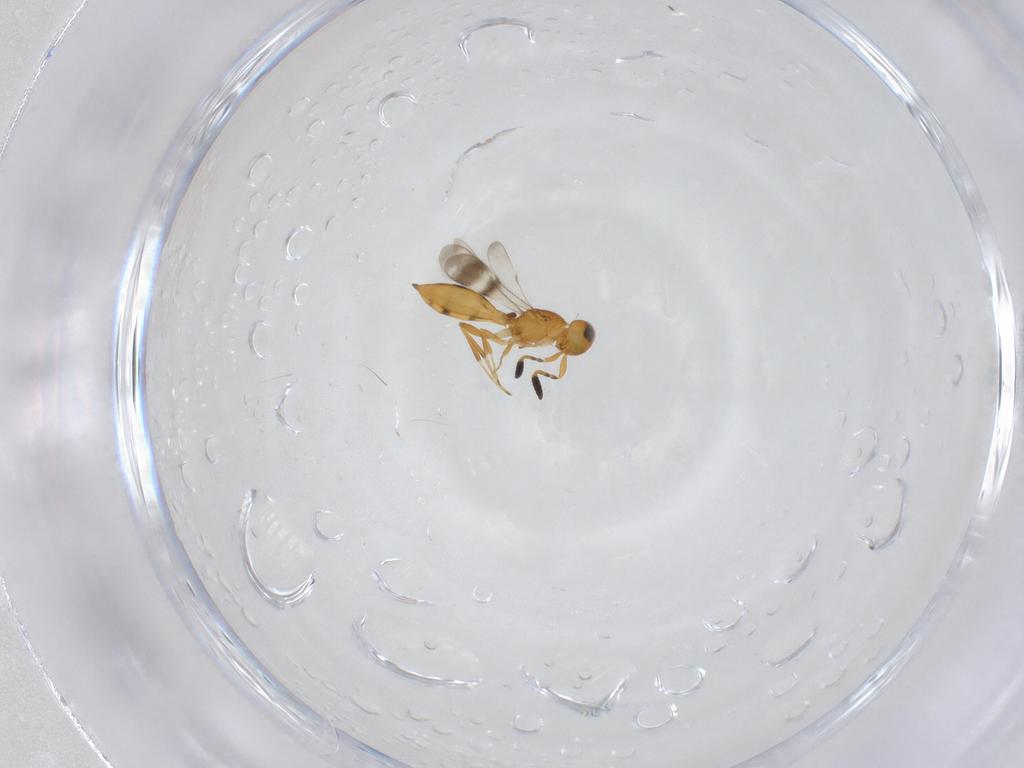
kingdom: Animalia
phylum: Arthropoda
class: Insecta
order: Hymenoptera
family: Scelionidae
